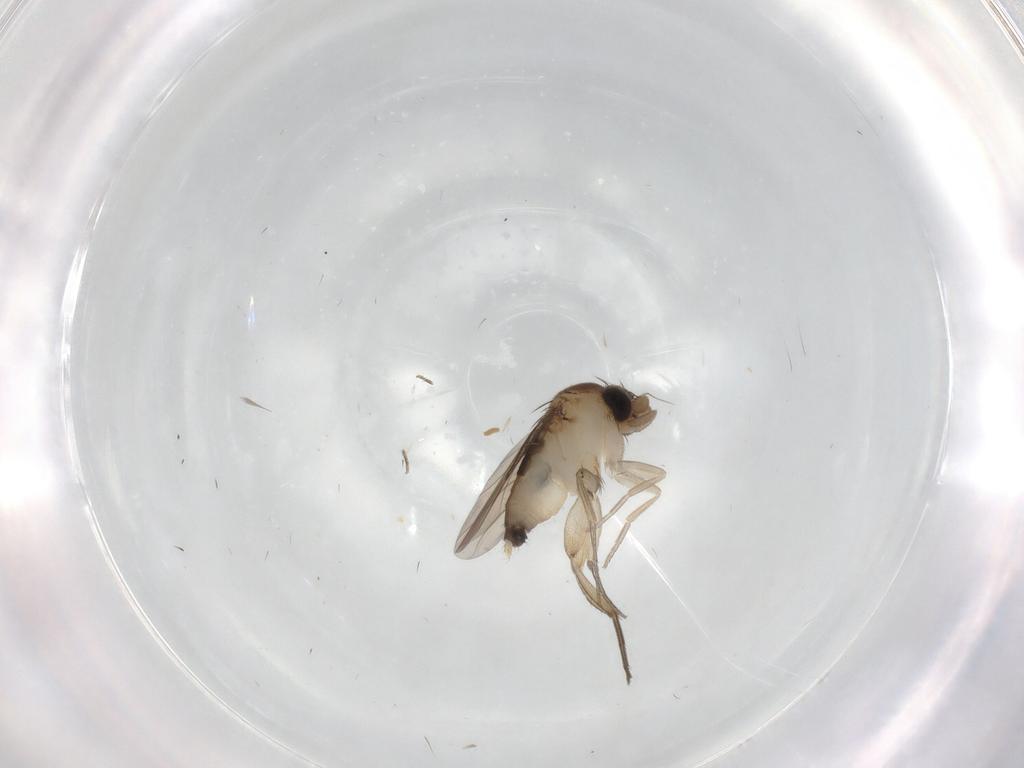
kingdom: Animalia
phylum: Arthropoda
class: Insecta
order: Diptera
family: Phoridae
